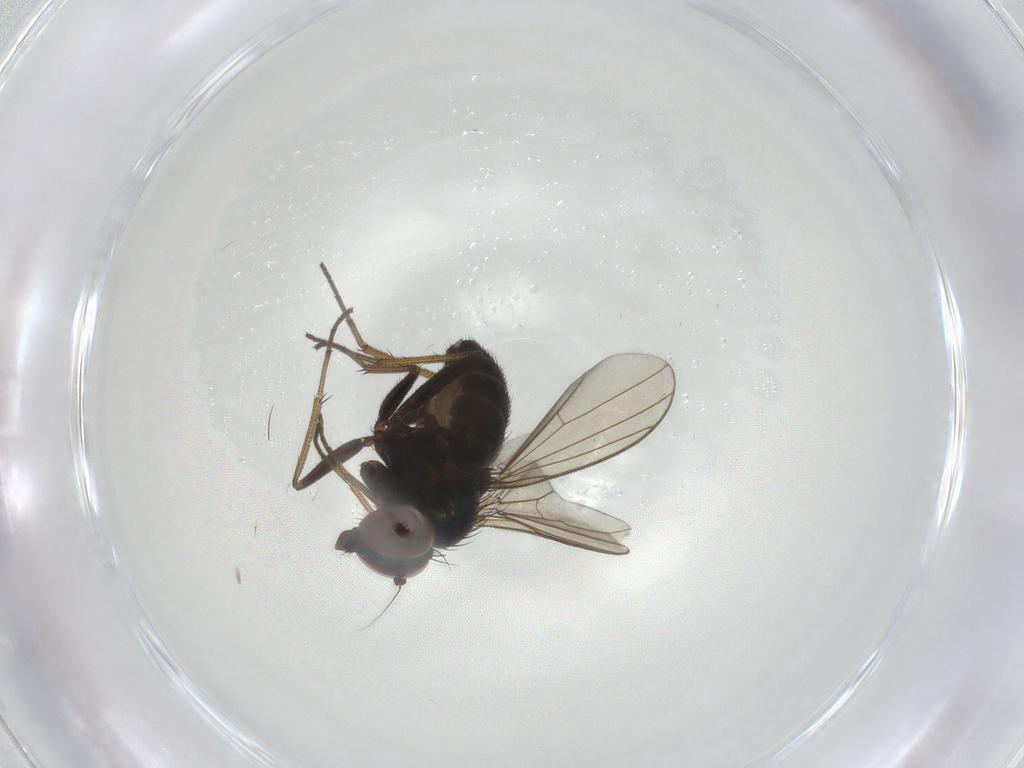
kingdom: Animalia
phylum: Arthropoda
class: Insecta
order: Diptera
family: Dolichopodidae
